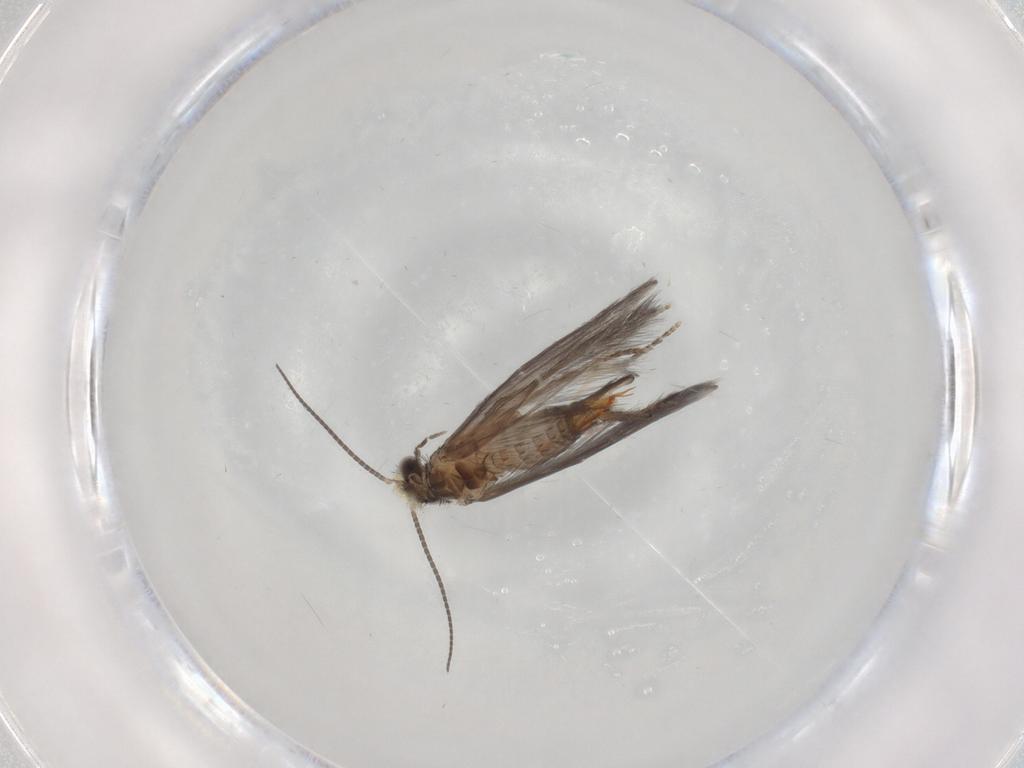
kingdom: Animalia
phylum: Arthropoda
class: Insecta
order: Trichoptera
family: Hydroptilidae
